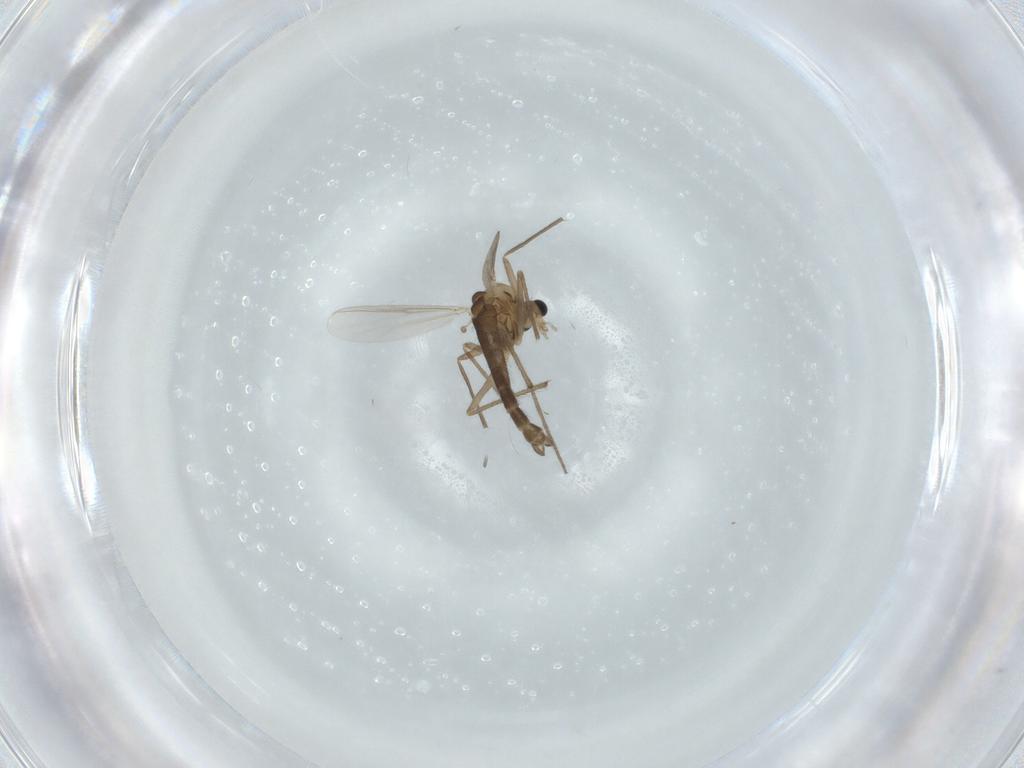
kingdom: Animalia
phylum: Arthropoda
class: Insecta
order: Diptera
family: Chironomidae
